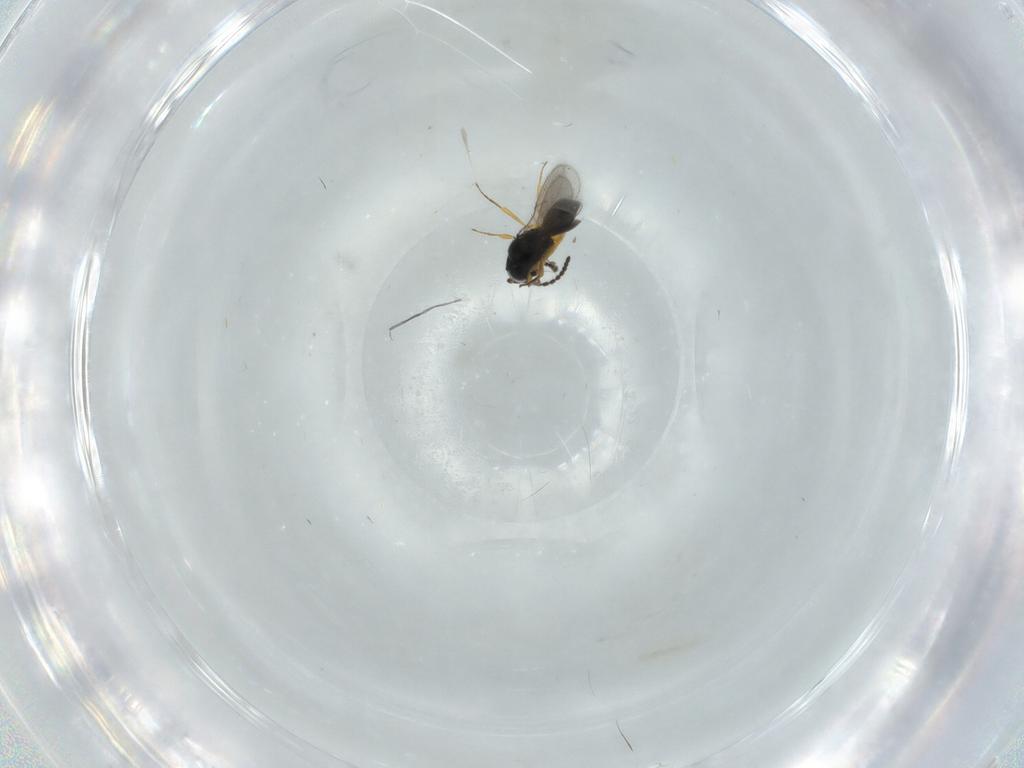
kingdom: Animalia
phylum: Arthropoda
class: Insecta
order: Hymenoptera
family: Scelionidae
